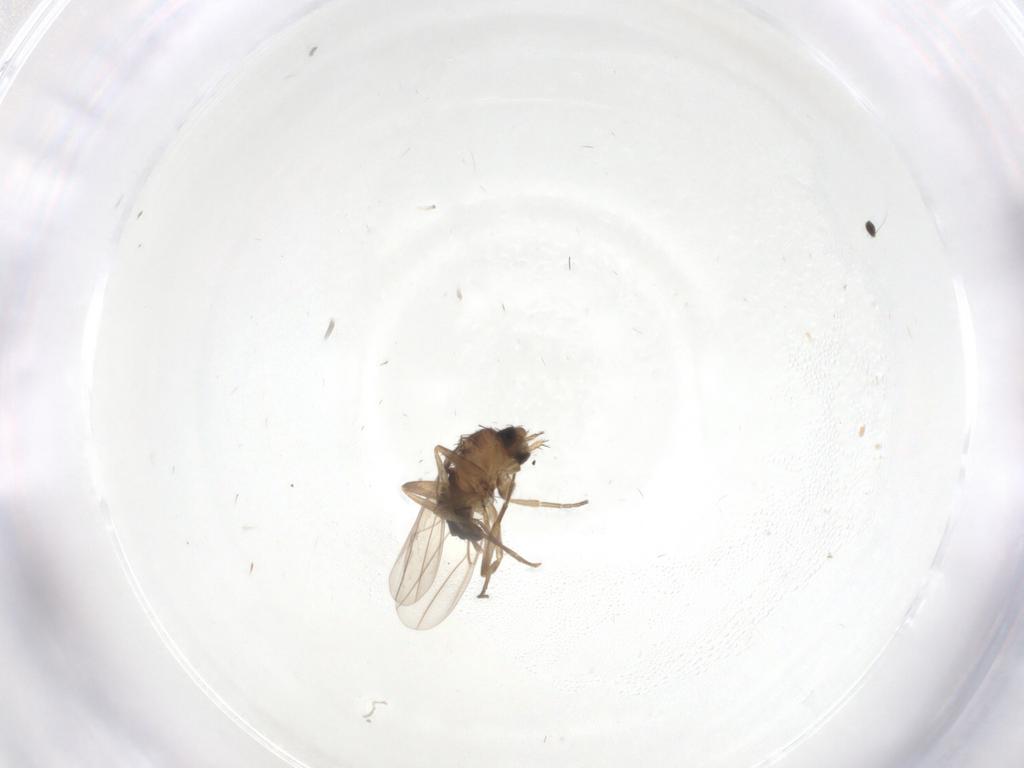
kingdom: Animalia
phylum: Arthropoda
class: Insecta
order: Diptera
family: Phoridae
